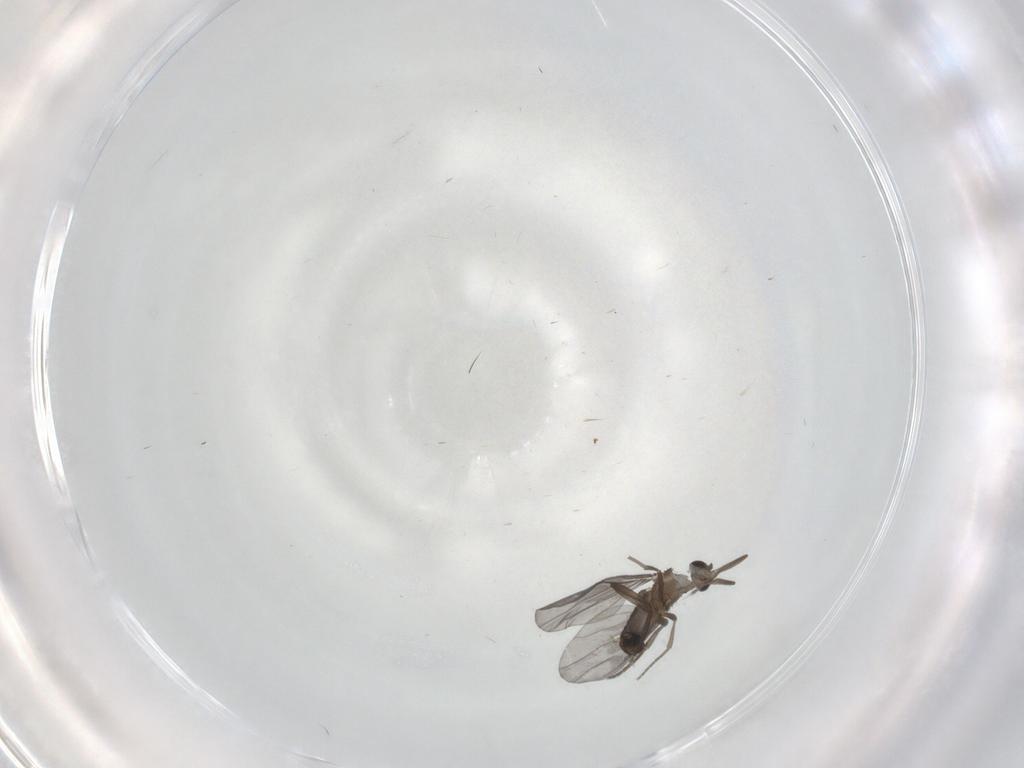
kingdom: Animalia
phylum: Arthropoda
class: Insecta
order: Diptera
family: Phoridae
